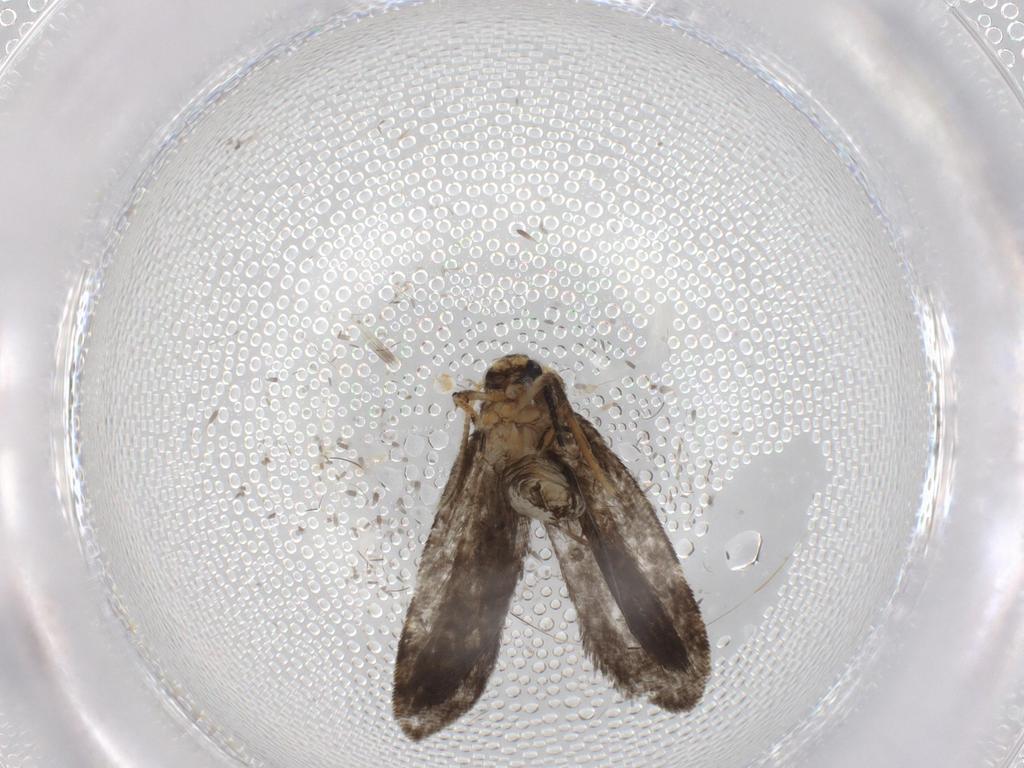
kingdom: Animalia
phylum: Arthropoda
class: Insecta
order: Lepidoptera
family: Psychidae
